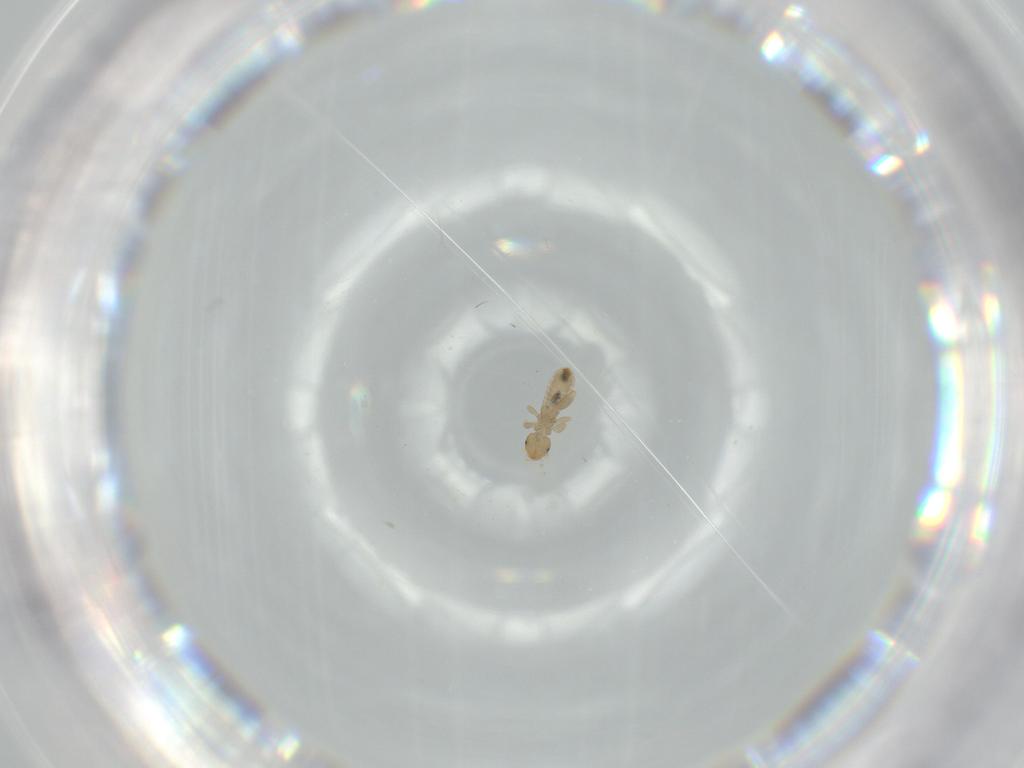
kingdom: Animalia
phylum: Arthropoda
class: Insecta
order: Psocodea
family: Liposcelididae
